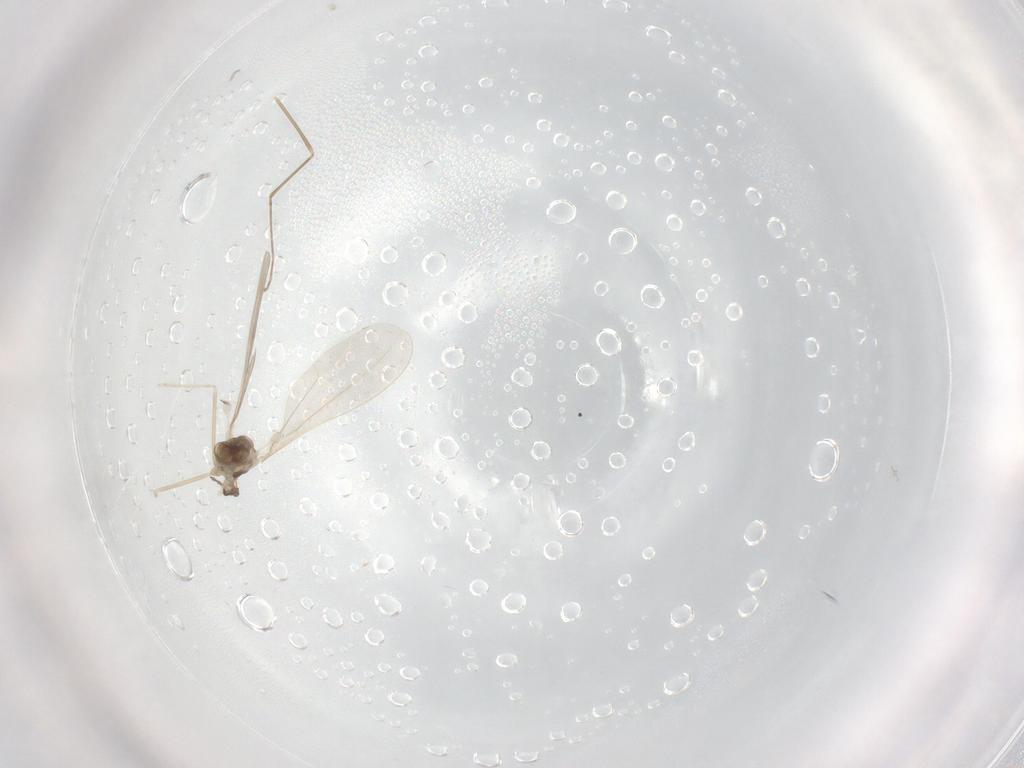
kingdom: Animalia
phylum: Arthropoda
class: Insecta
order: Diptera
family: Cecidomyiidae
